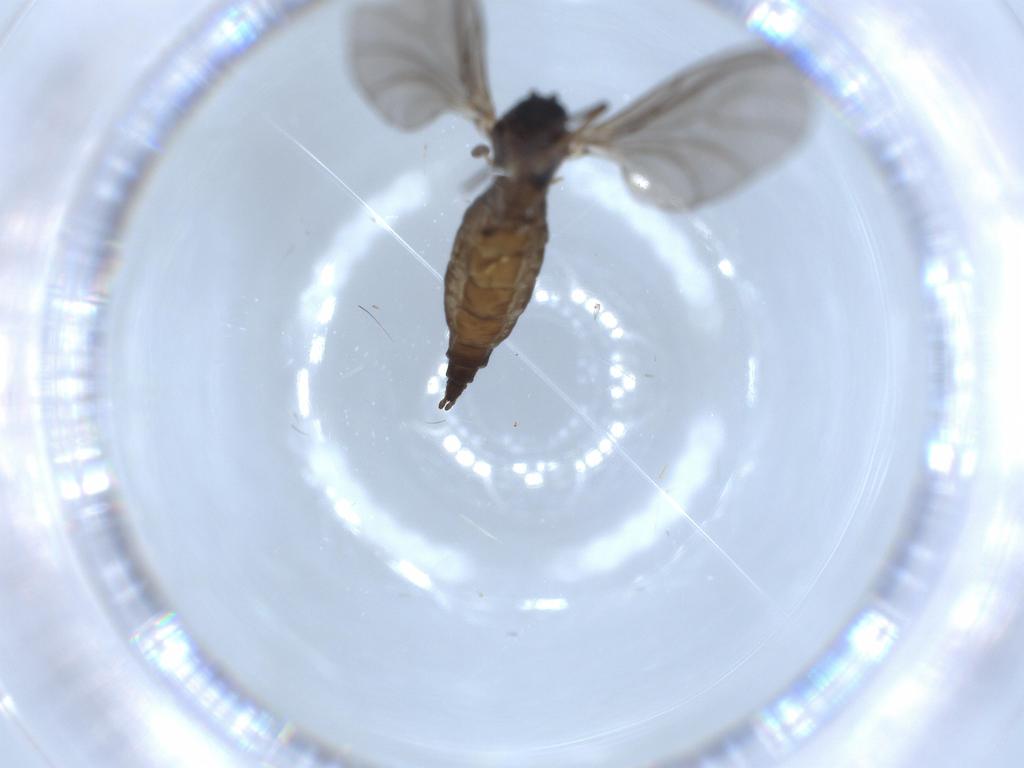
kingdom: Animalia
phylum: Arthropoda
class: Insecta
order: Diptera
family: Sciaridae
